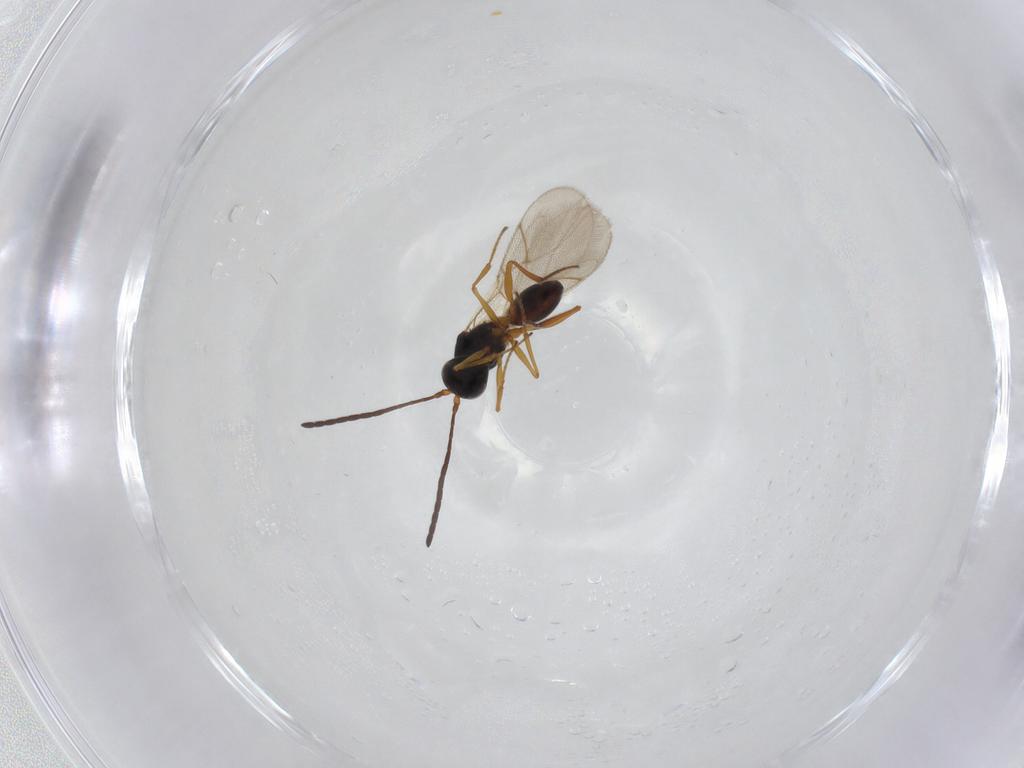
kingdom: Animalia
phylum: Arthropoda
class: Insecta
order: Hymenoptera
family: Figitidae
